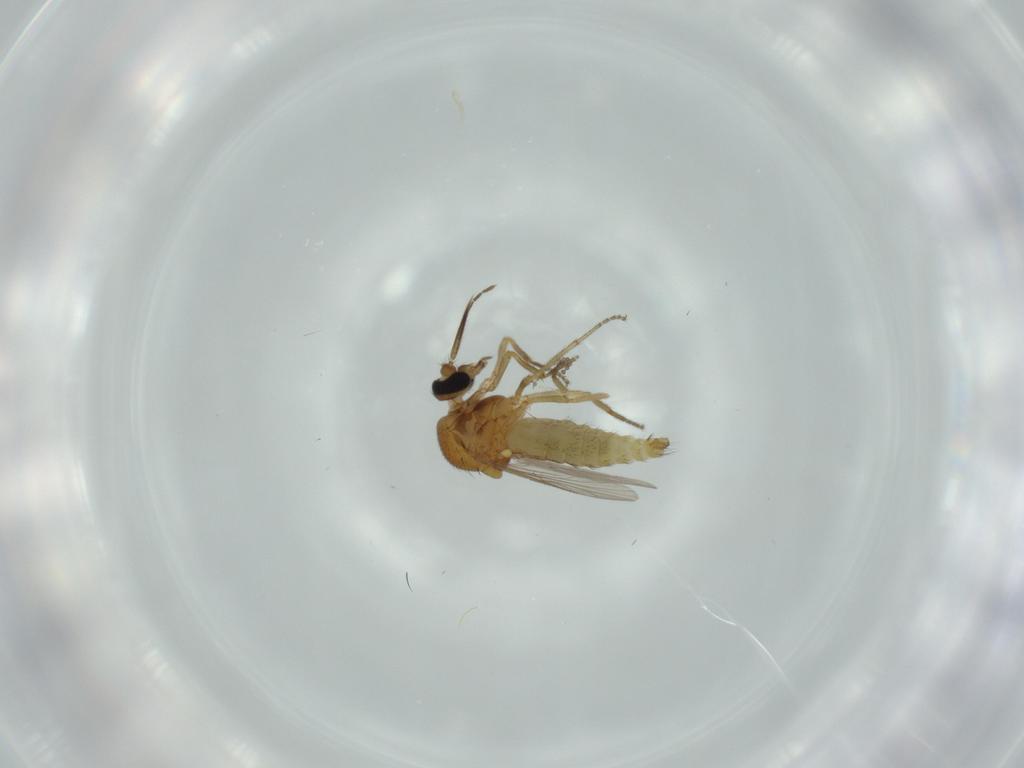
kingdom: Animalia
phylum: Arthropoda
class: Insecta
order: Diptera
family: Ceratopogonidae
